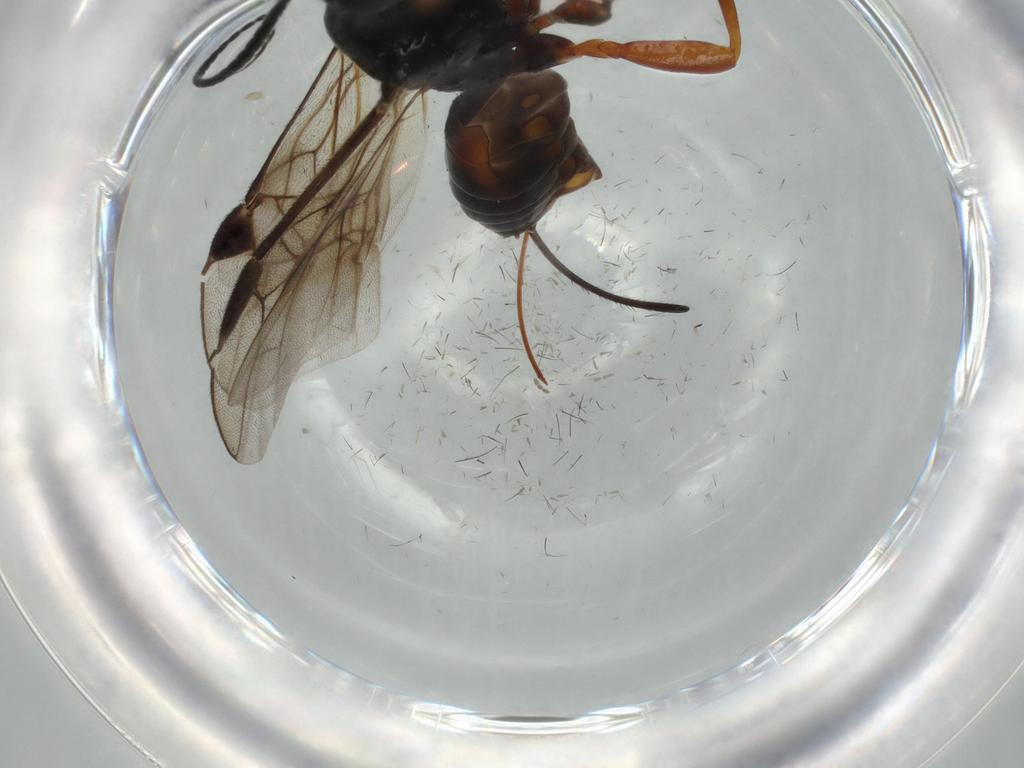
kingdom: Animalia
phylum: Arthropoda
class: Insecta
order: Hymenoptera
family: Braconidae
